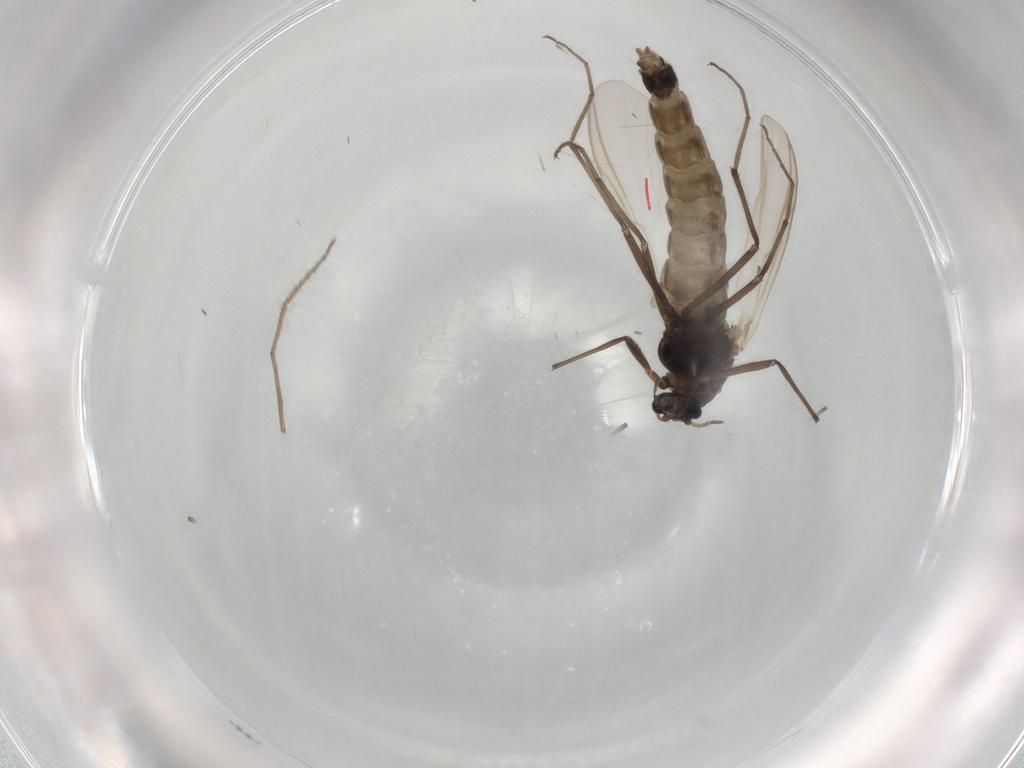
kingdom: Animalia
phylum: Arthropoda
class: Insecta
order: Diptera
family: Chironomidae
